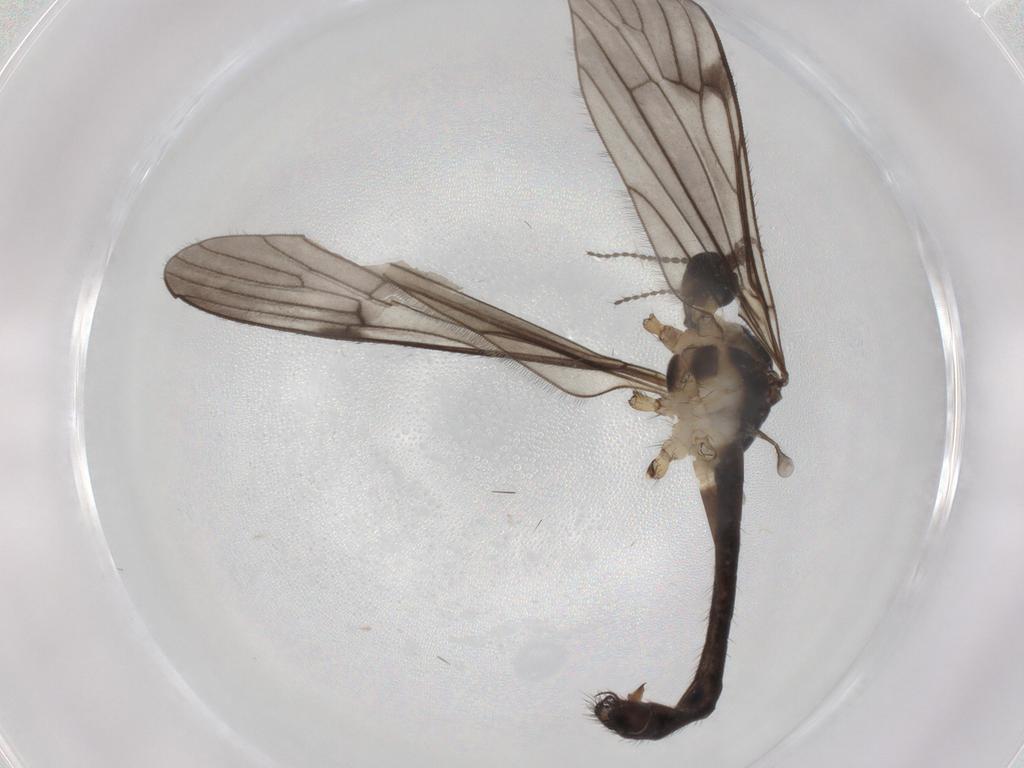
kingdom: Animalia
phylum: Arthropoda
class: Insecta
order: Diptera
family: Limoniidae
